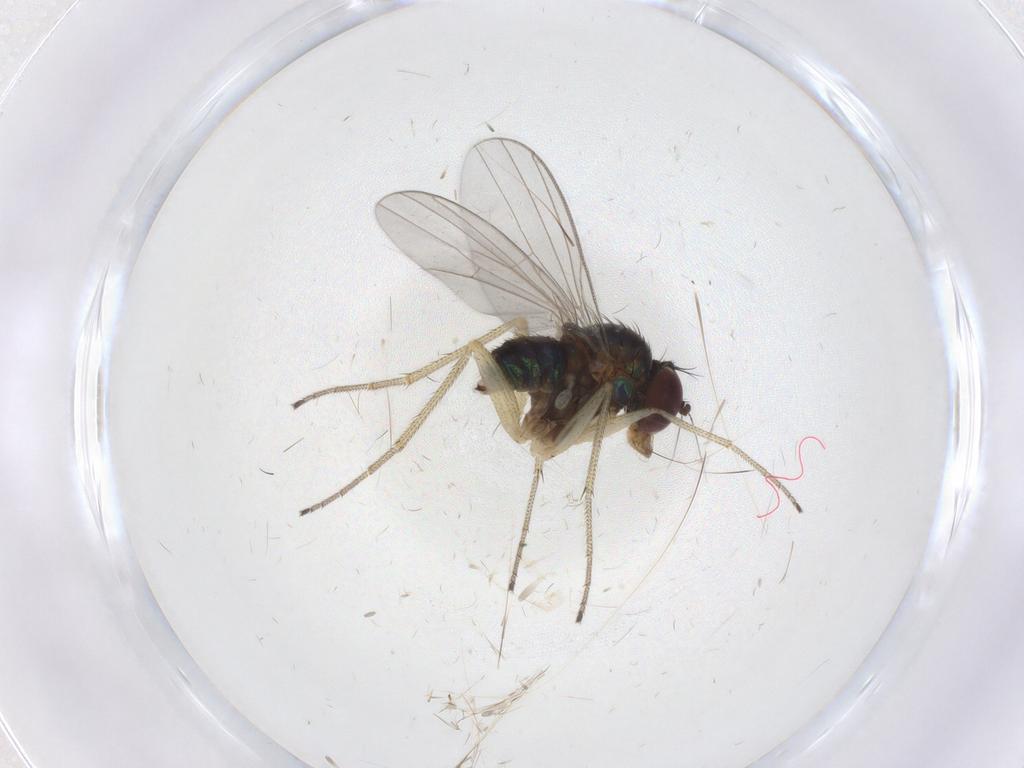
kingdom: Animalia
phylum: Arthropoda
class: Insecta
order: Diptera
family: Dolichopodidae
